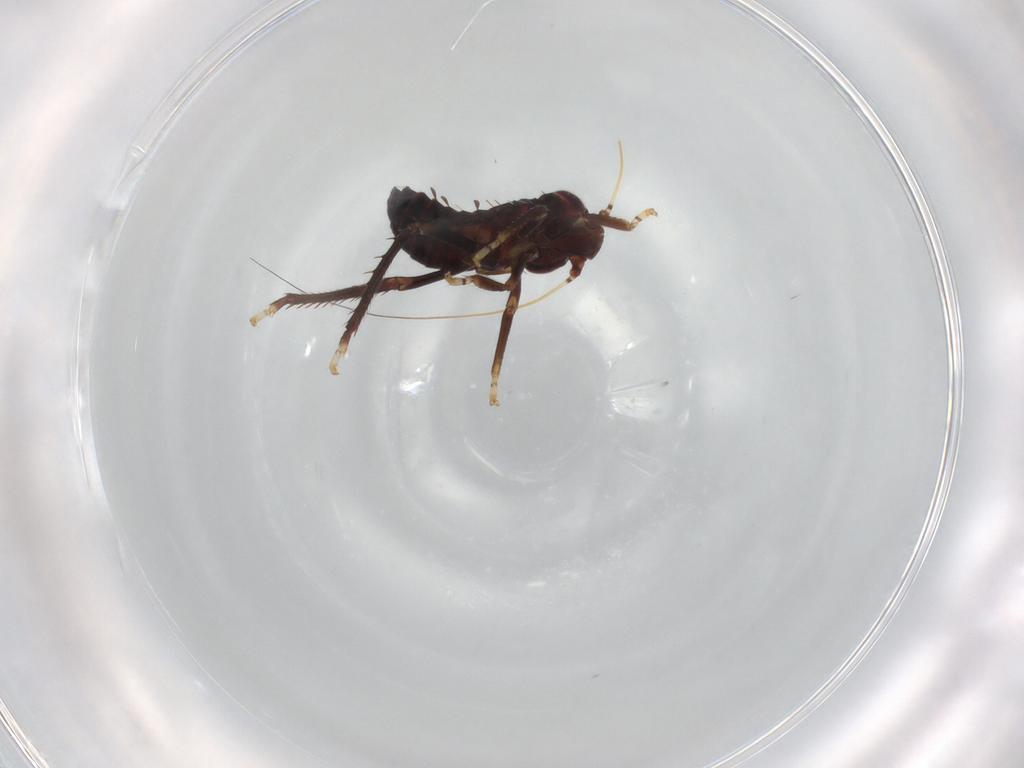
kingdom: Animalia
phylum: Arthropoda
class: Insecta
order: Hemiptera
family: Cicadellidae
